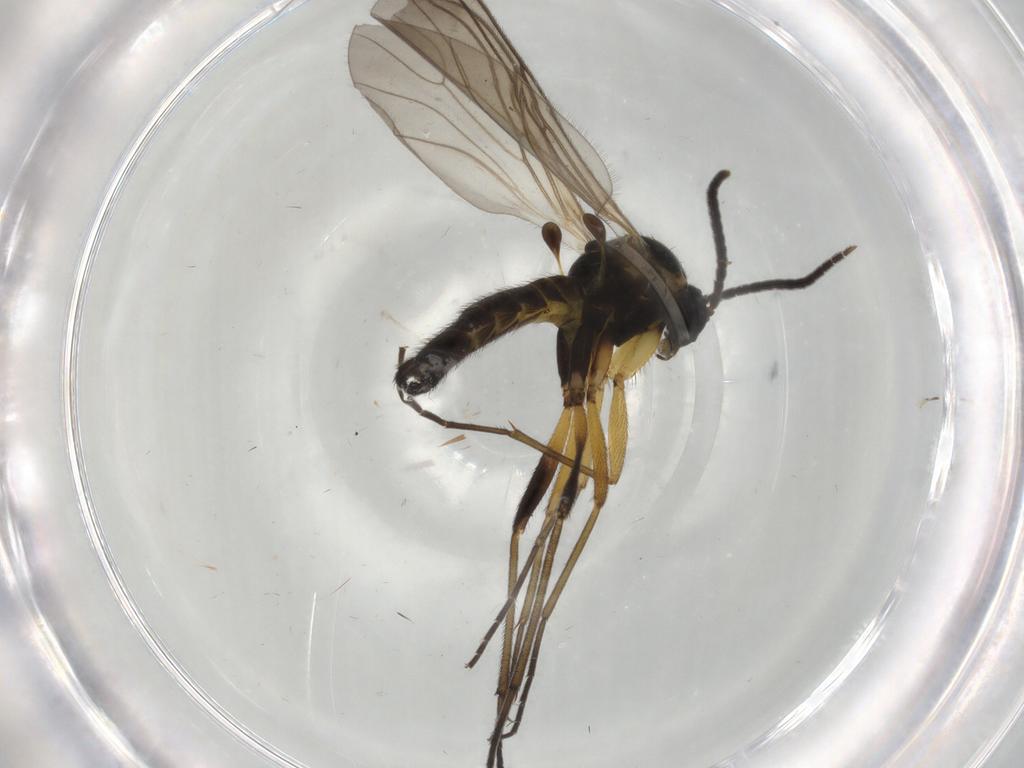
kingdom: Animalia
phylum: Arthropoda
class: Insecta
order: Diptera
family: Sciaridae
